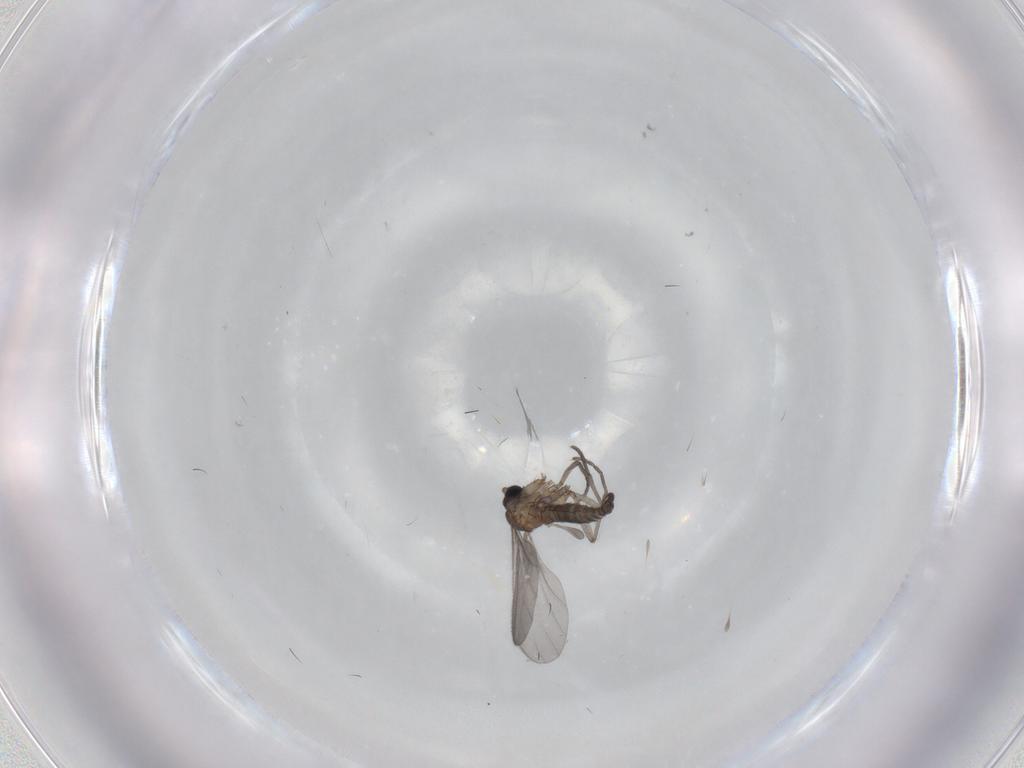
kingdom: Animalia
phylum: Arthropoda
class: Insecta
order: Diptera
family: Sciaridae
